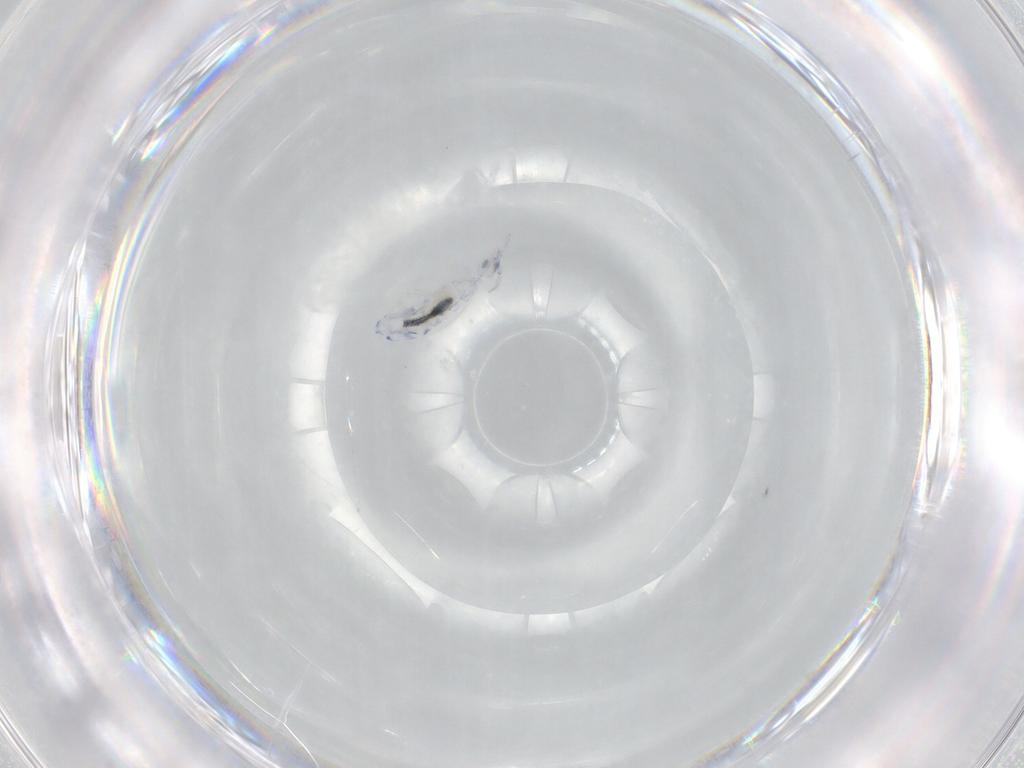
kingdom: Animalia
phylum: Arthropoda
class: Collembola
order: Entomobryomorpha
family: Entomobryidae
